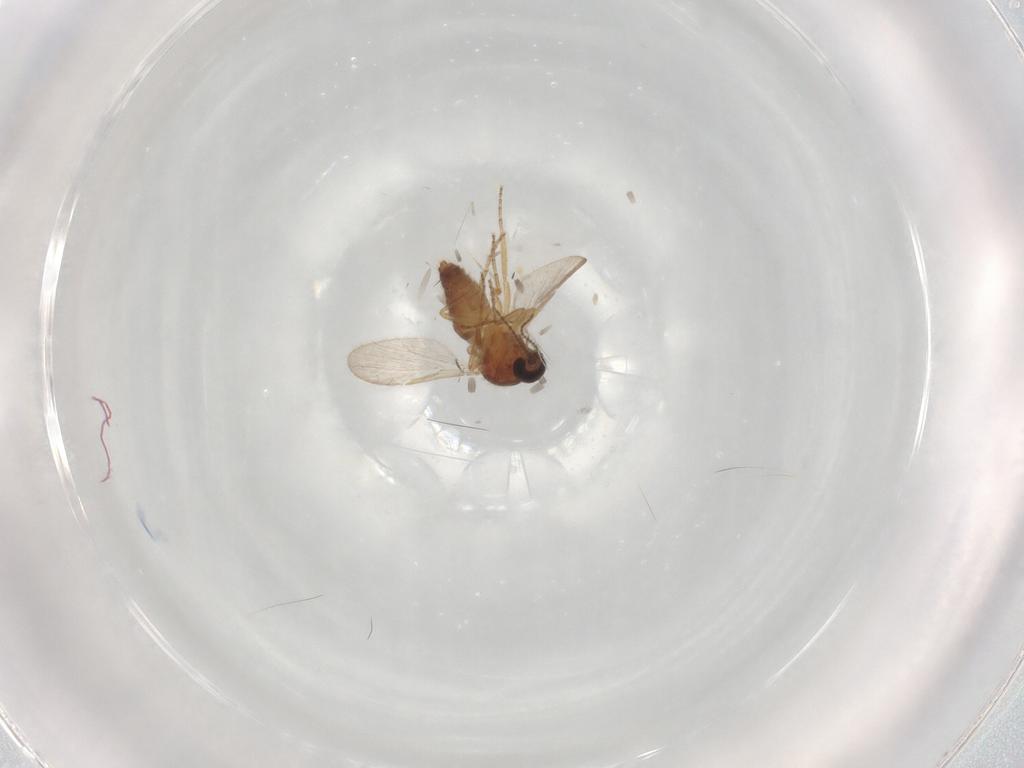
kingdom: Animalia
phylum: Arthropoda
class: Insecta
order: Diptera
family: Ceratopogonidae
